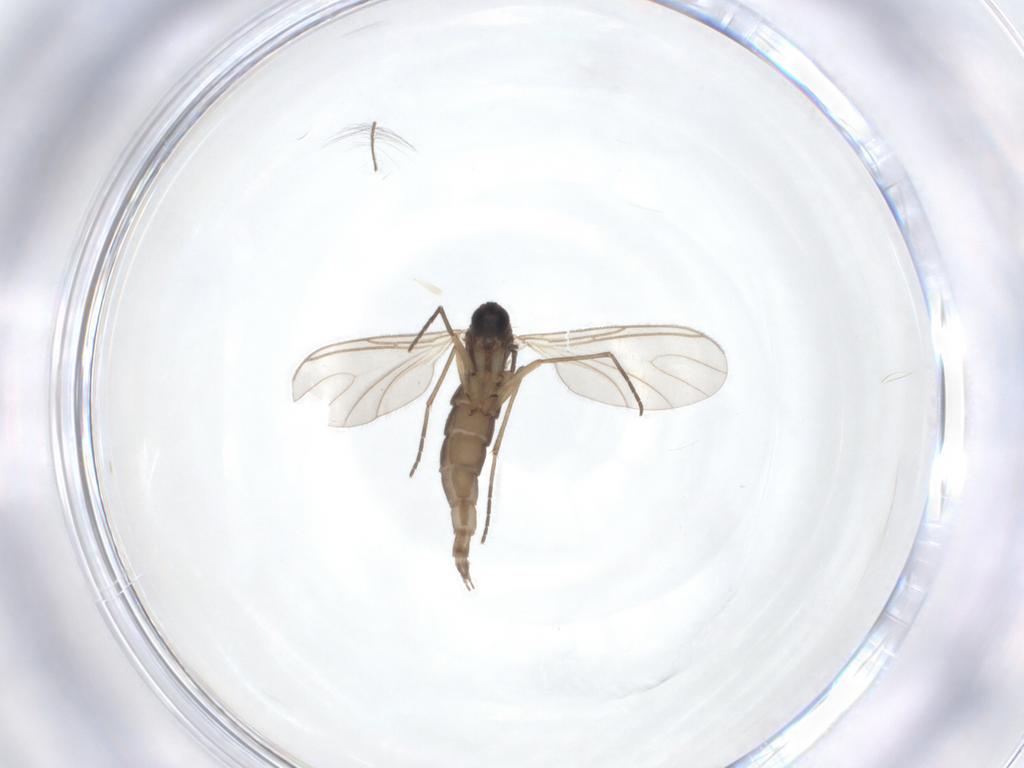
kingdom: Animalia
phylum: Arthropoda
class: Insecta
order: Diptera
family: Sciaridae
